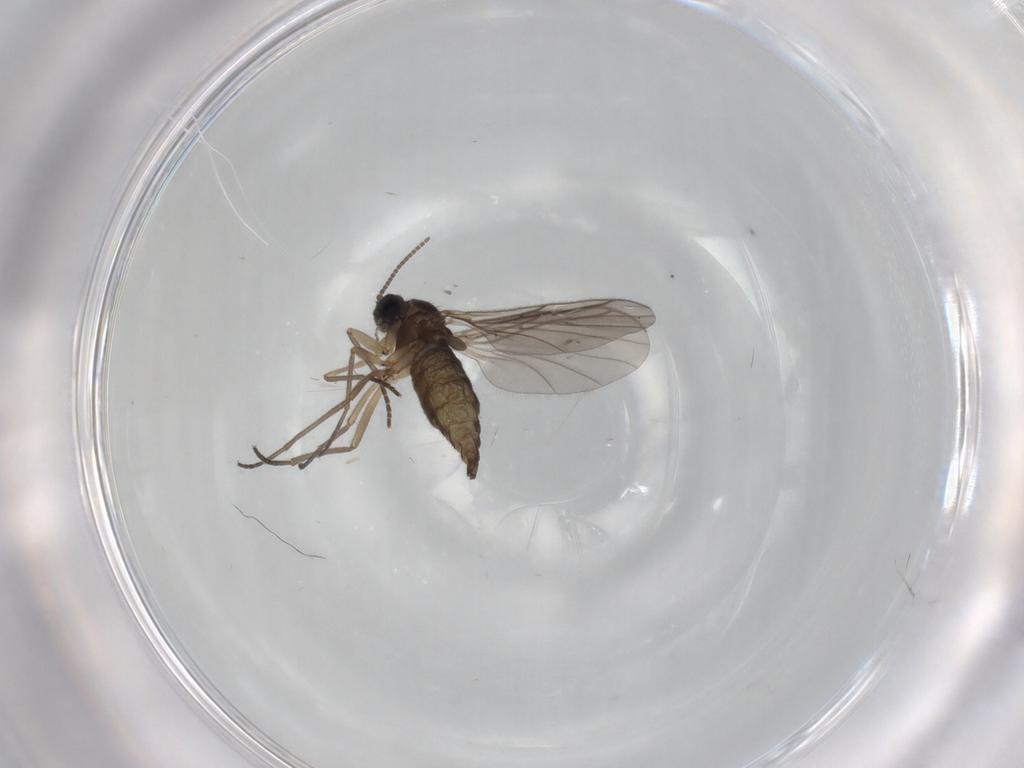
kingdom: Animalia
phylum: Arthropoda
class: Insecta
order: Diptera
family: Sciaridae
